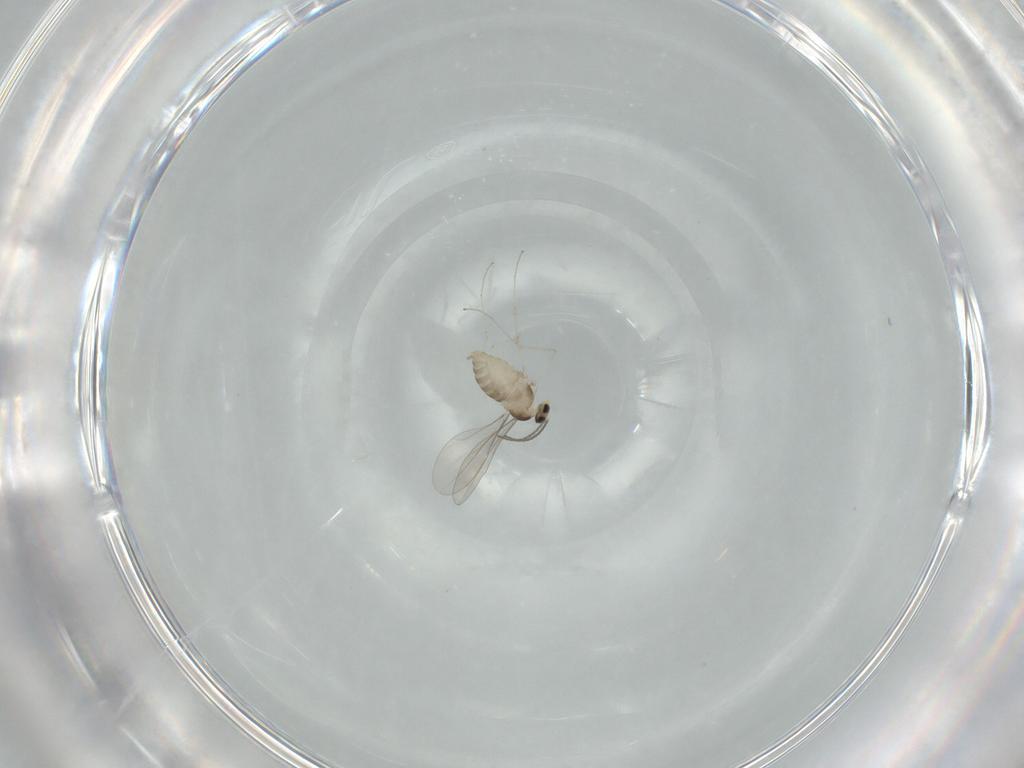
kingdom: Animalia
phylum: Arthropoda
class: Insecta
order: Diptera
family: Cecidomyiidae
